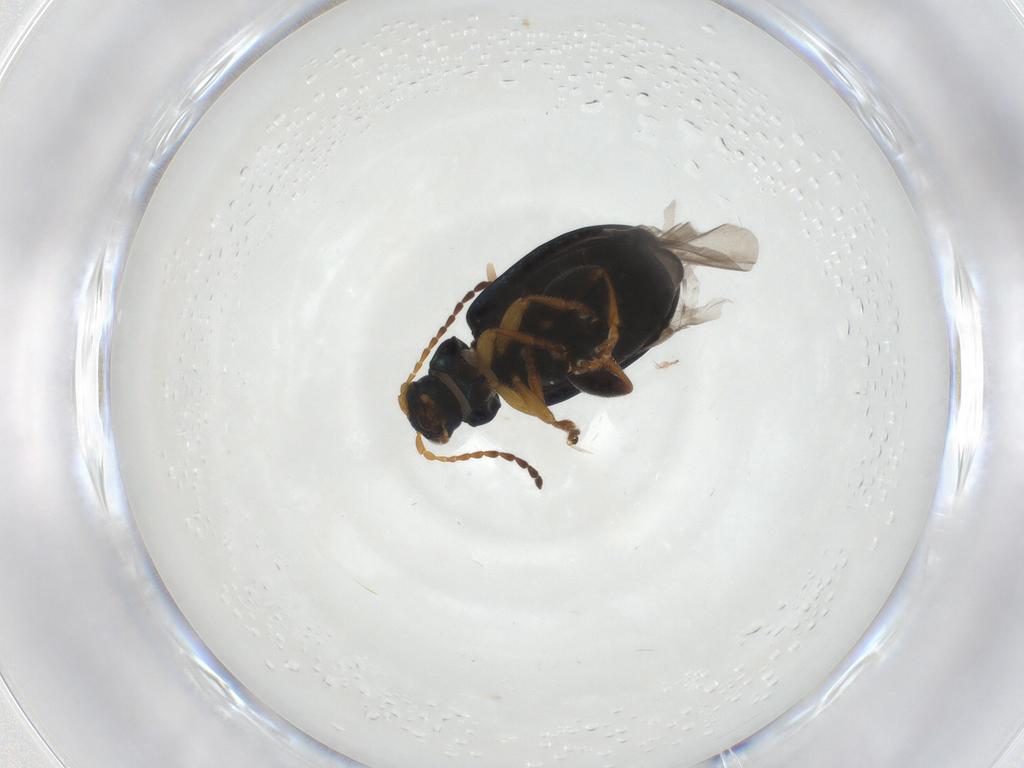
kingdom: Animalia
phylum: Arthropoda
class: Insecta
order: Coleoptera
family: Chrysomelidae
